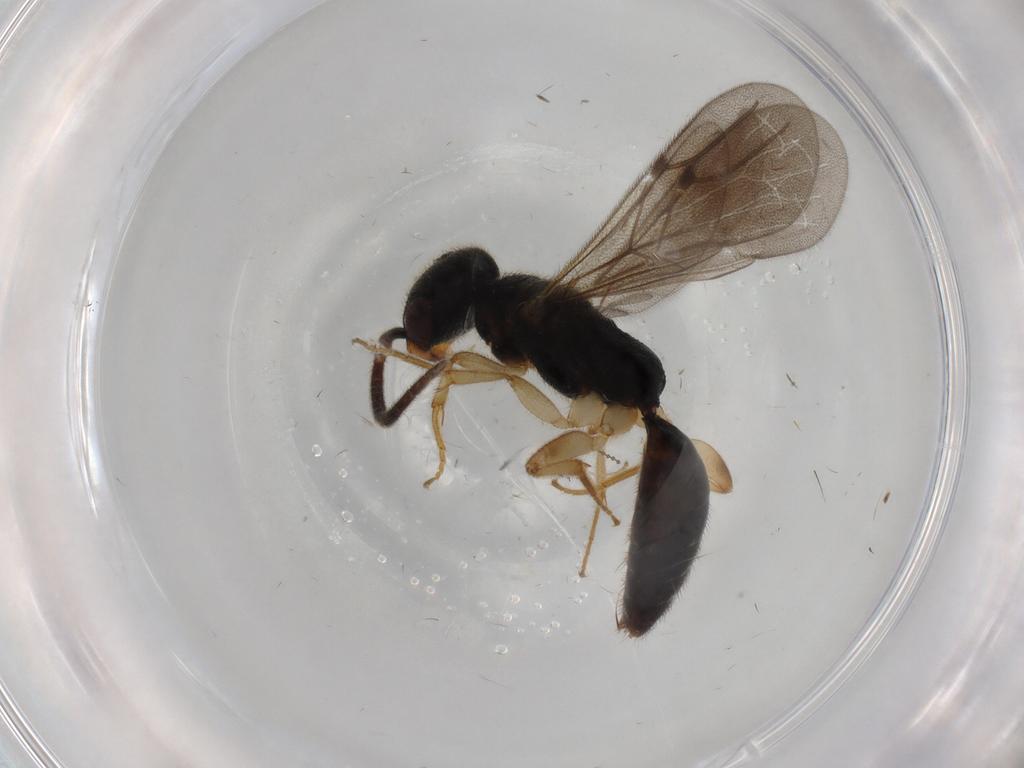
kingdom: Animalia
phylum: Arthropoda
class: Insecta
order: Hymenoptera
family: Bethylidae
